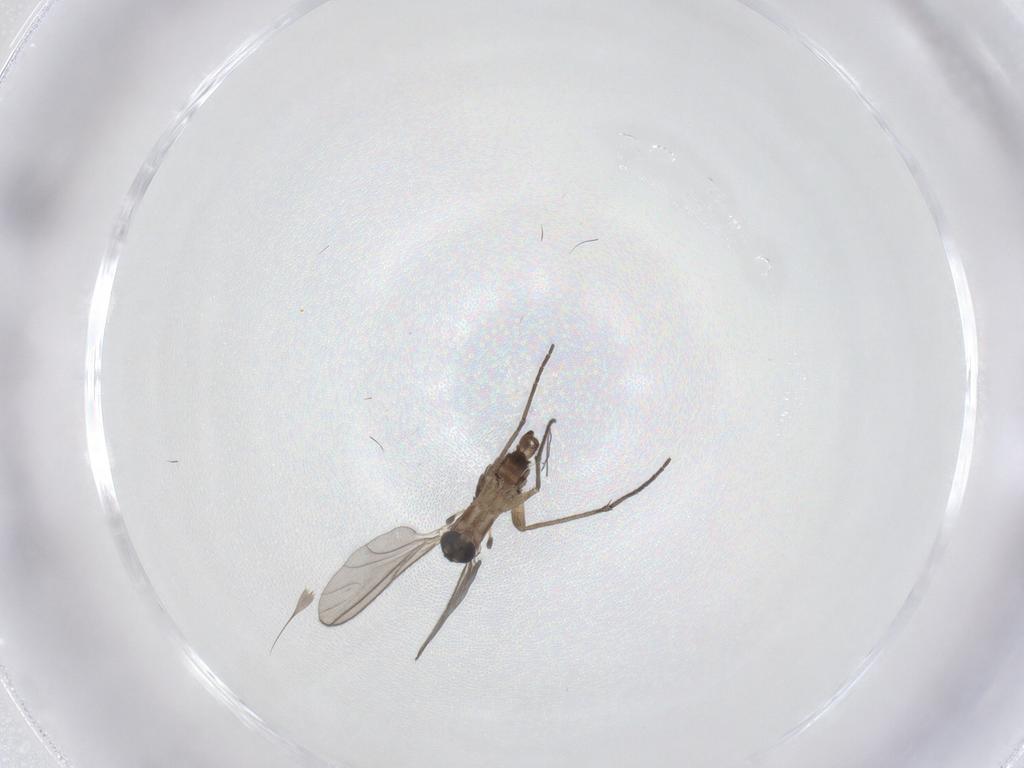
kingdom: Animalia
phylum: Arthropoda
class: Insecta
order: Diptera
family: Sciaridae
